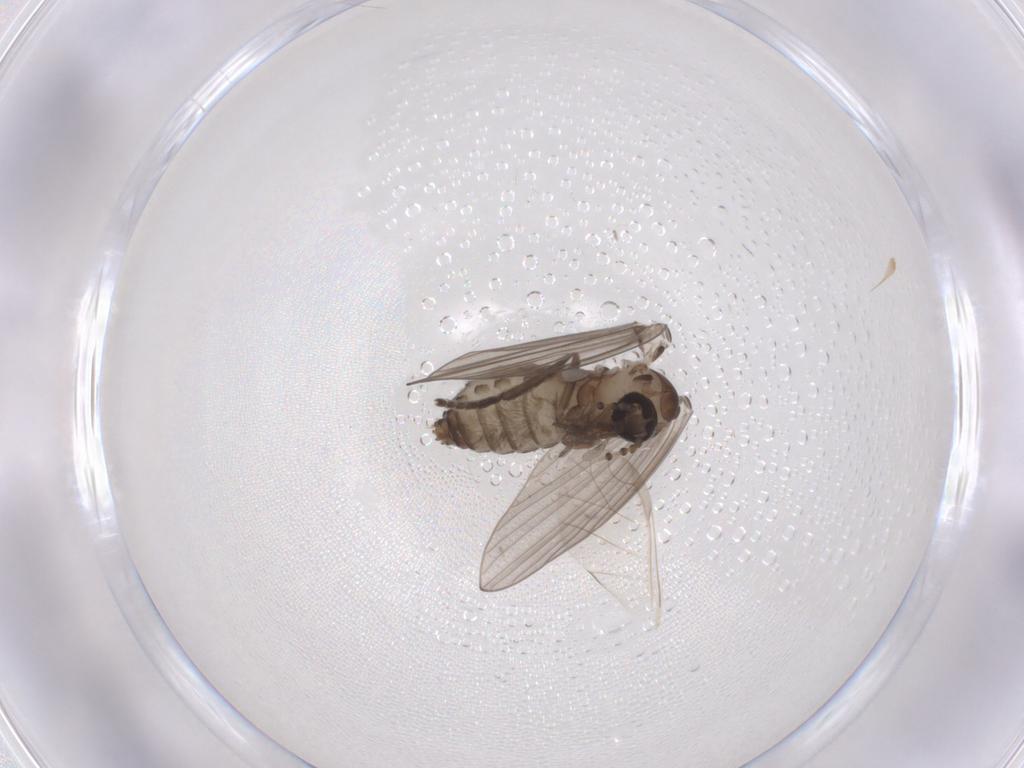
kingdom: Animalia
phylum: Arthropoda
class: Insecta
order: Diptera
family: Psychodidae
